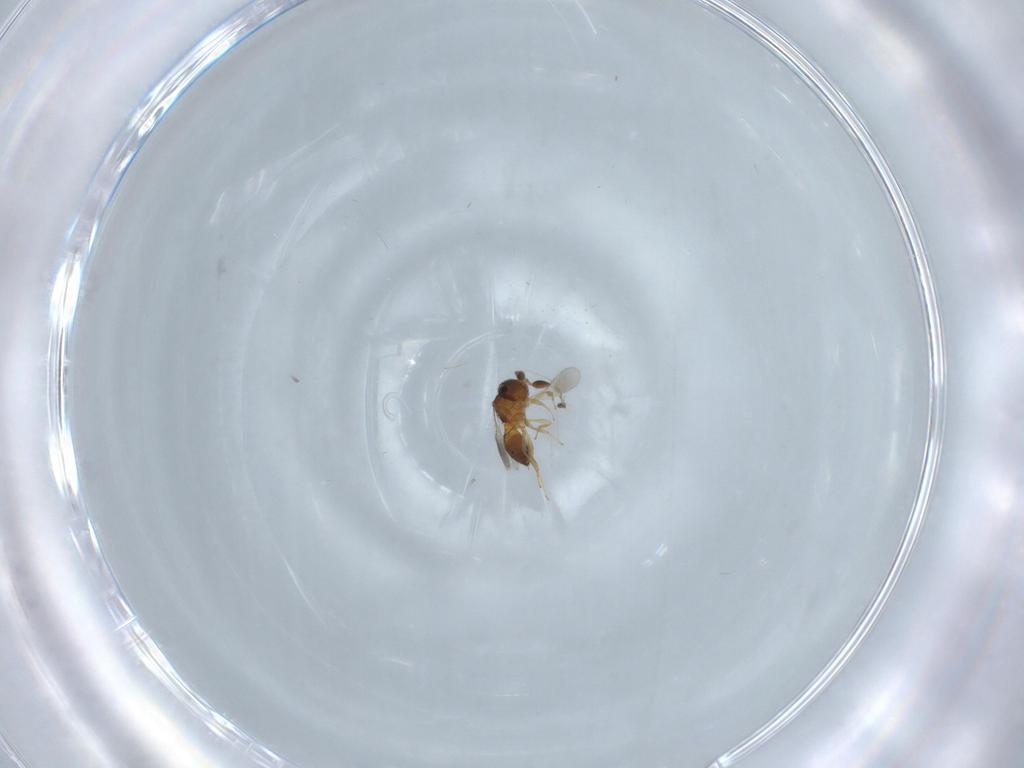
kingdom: Animalia
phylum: Arthropoda
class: Insecta
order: Hymenoptera
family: Scelionidae
